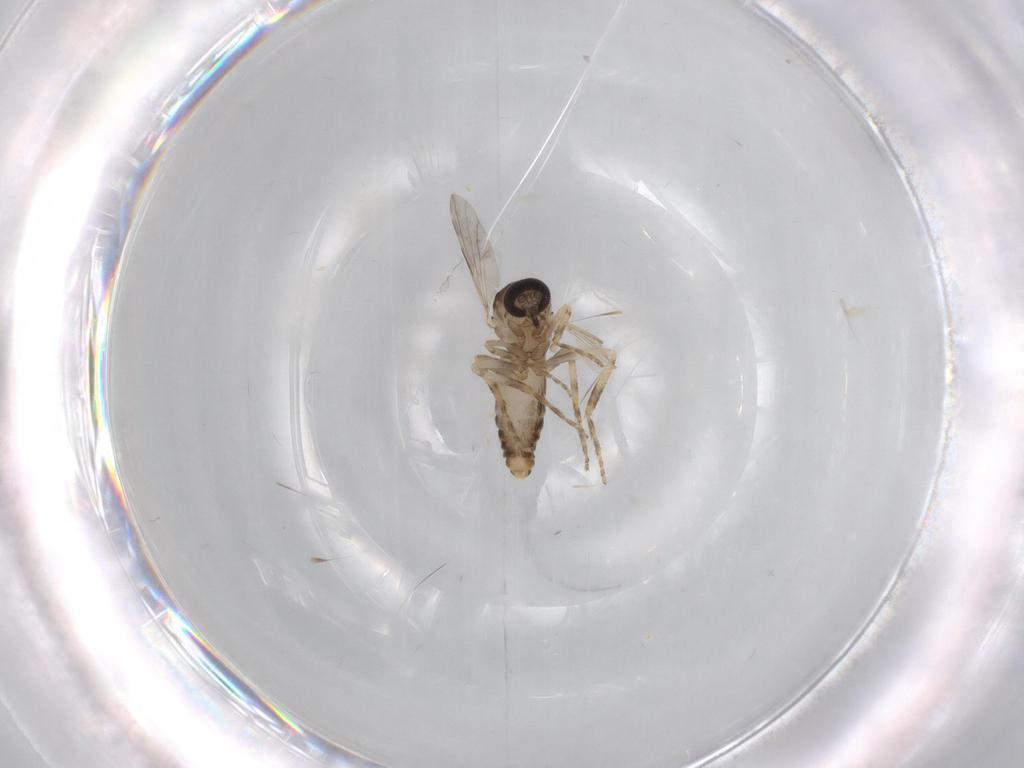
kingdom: Animalia
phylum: Arthropoda
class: Insecta
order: Diptera
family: Ceratopogonidae
